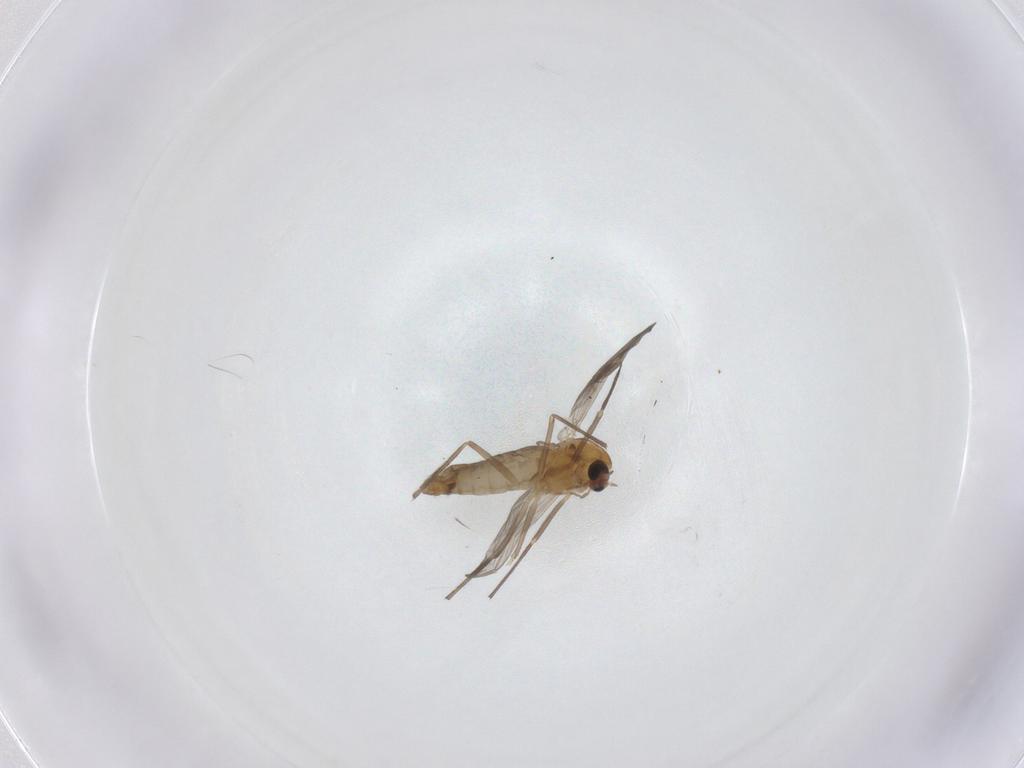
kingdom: Animalia
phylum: Arthropoda
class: Insecta
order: Diptera
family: Chironomidae
